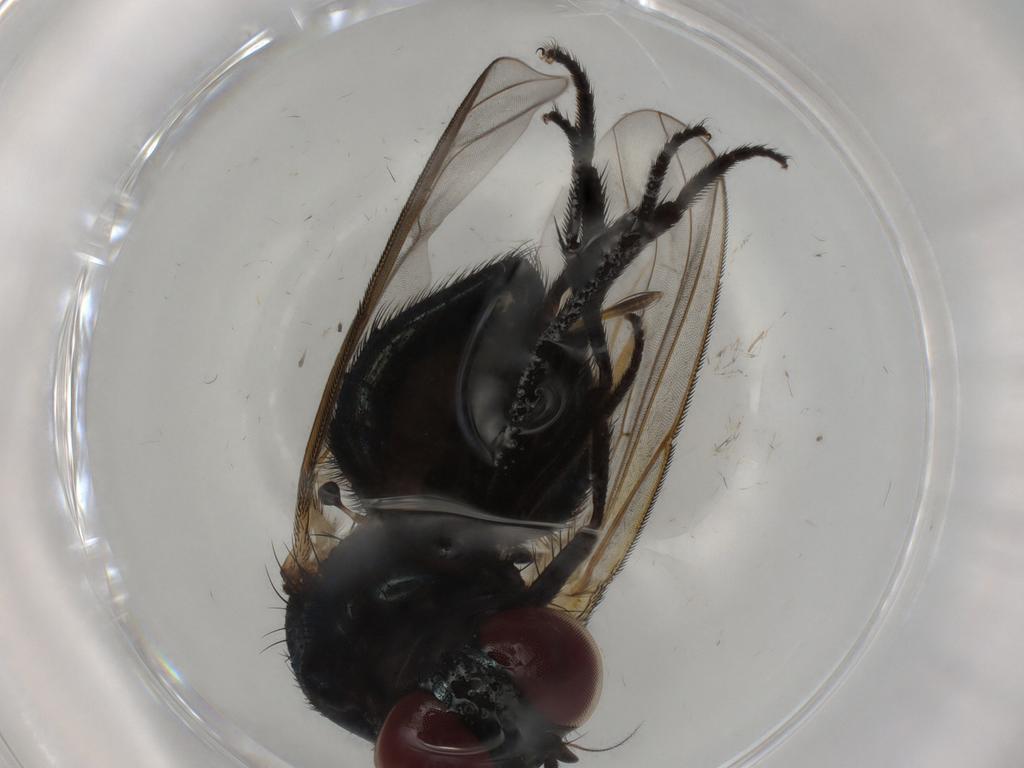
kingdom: Animalia
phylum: Arthropoda
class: Insecta
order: Diptera
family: Lonchaeidae
